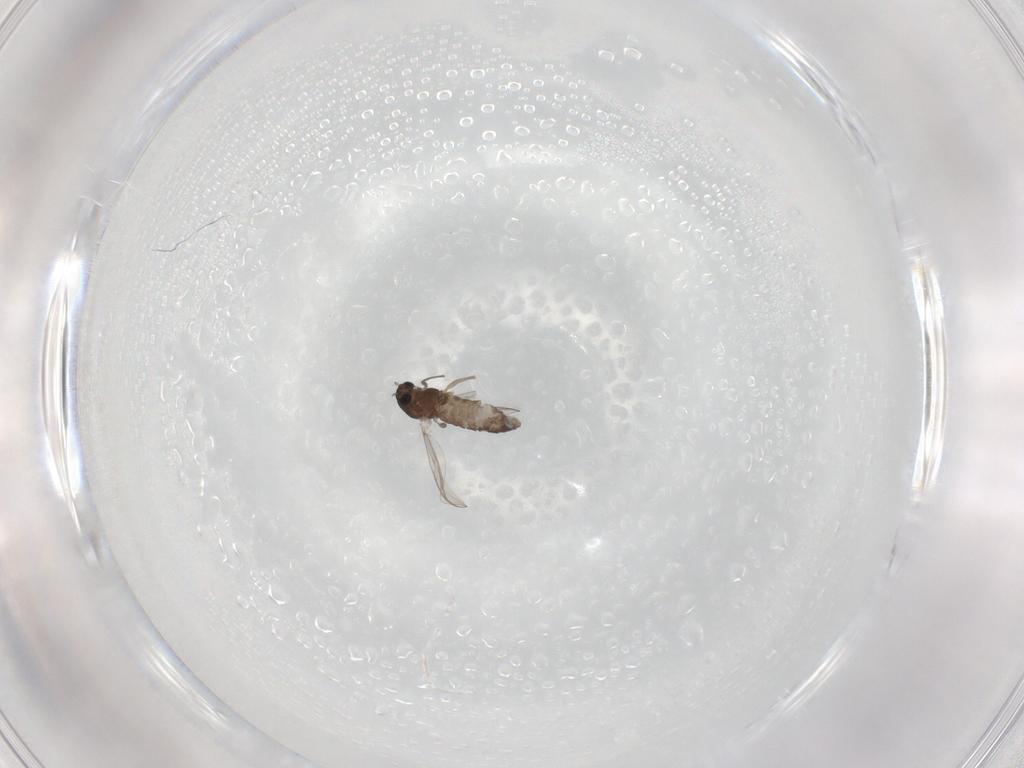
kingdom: Animalia
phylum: Arthropoda
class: Insecta
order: Diptera
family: Chironomidae
